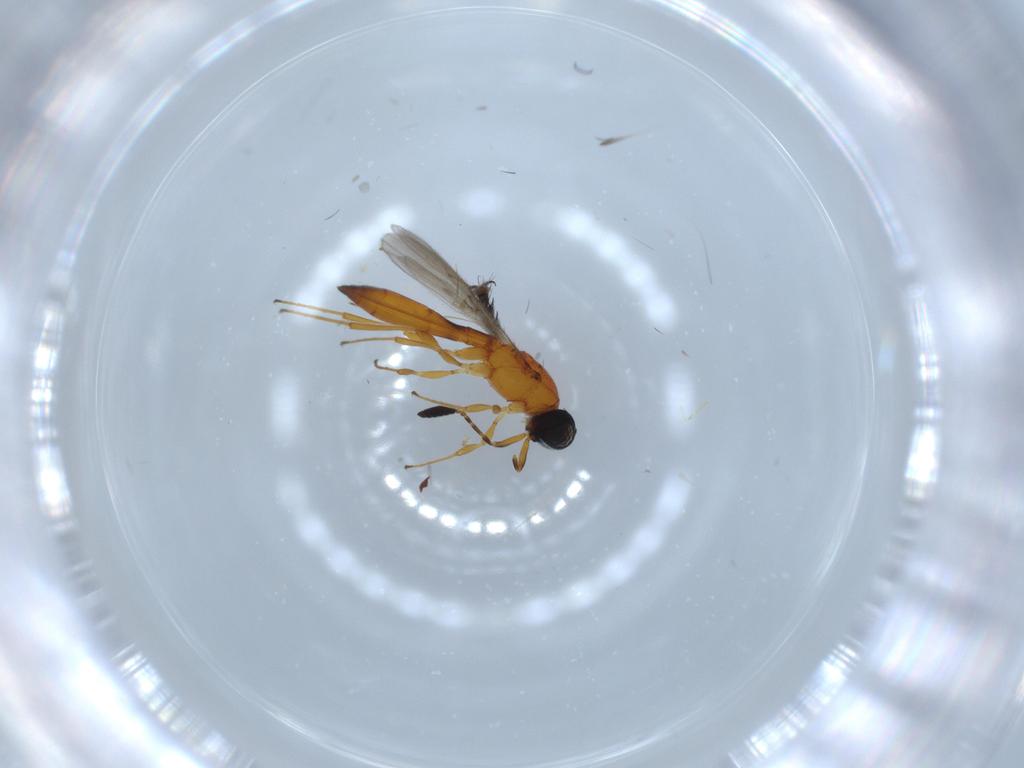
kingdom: Animalia
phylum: Arthropoda
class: Insecta
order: Hymenoptera
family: Scelionidae
